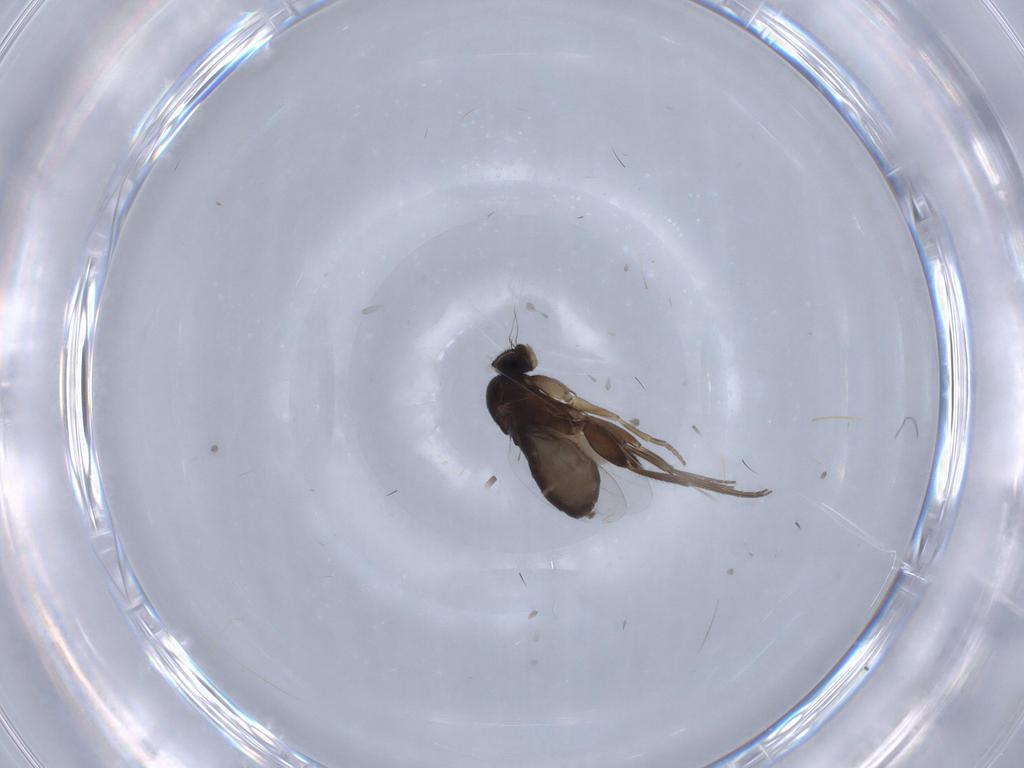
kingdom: Animalia
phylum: Arthropoda
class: Insecta
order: Diptera
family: Phoridae
